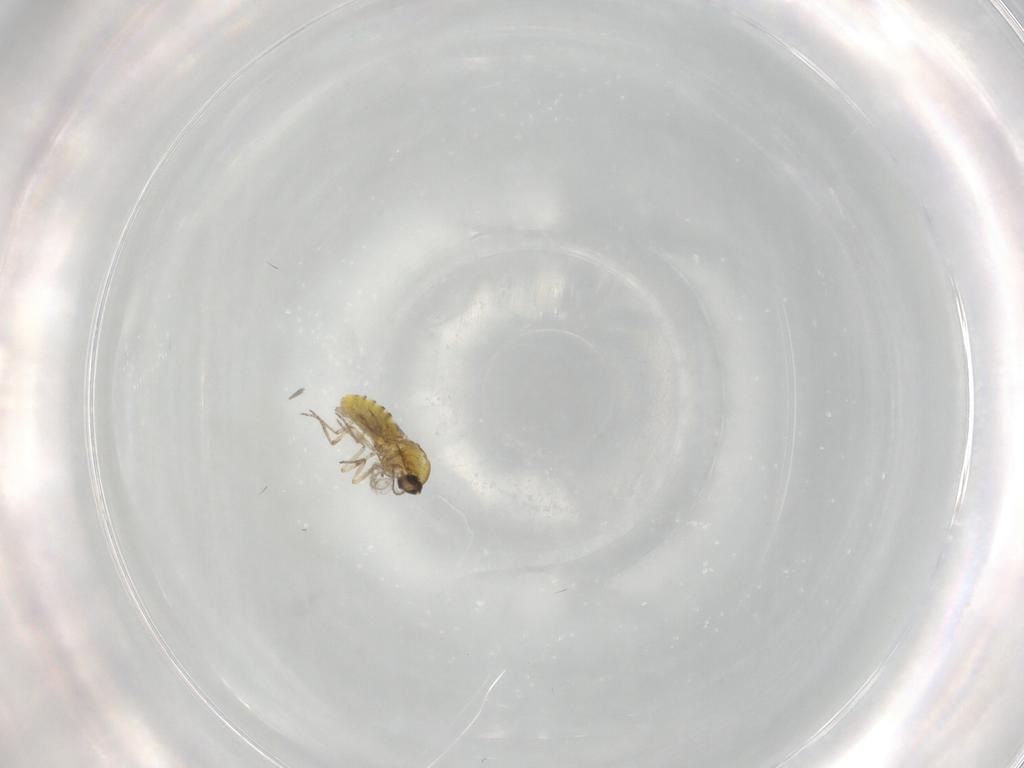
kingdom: Animalia
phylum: Arthropoda
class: Insecta
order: Diptera
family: Ceratopogonidae
